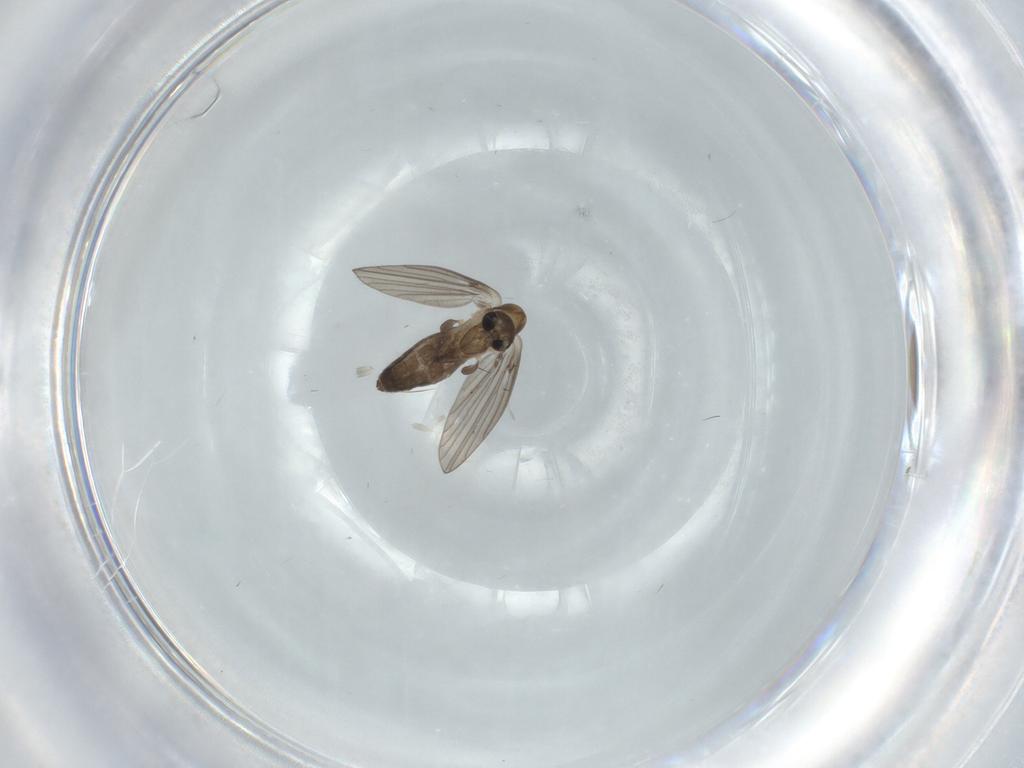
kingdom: Animalia
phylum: Arthropoda
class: Insecta
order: Diptera
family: Psychodidae
